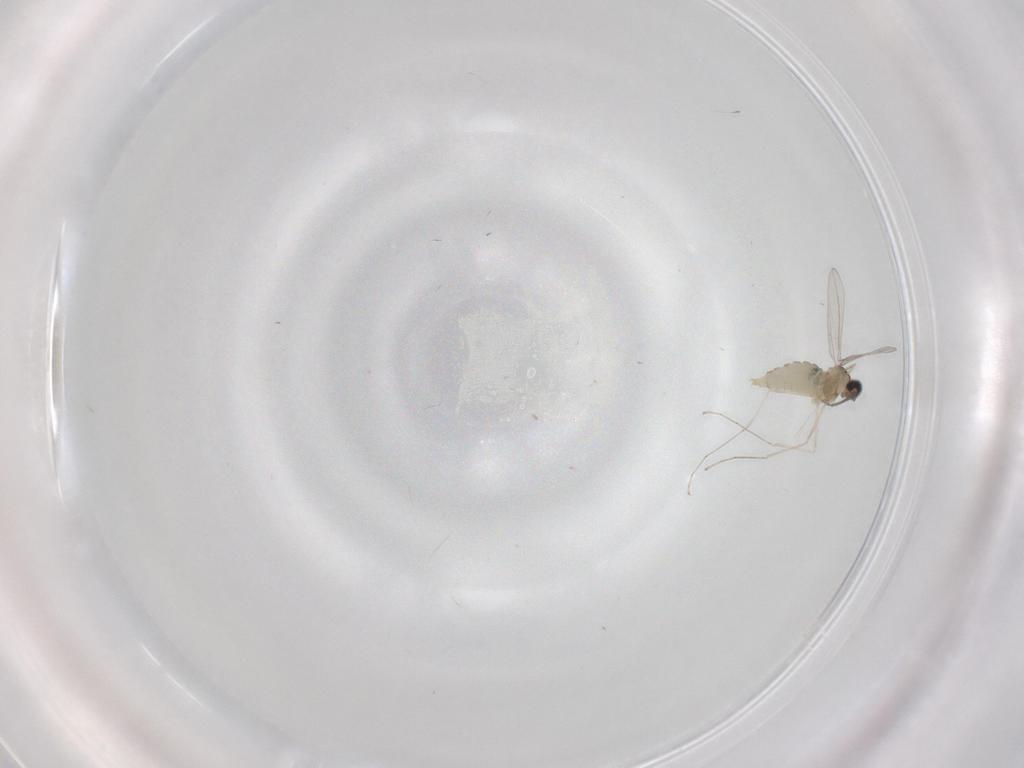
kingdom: Animalia
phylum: Arthropoda
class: Insecta
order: Diptera
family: Cecidomyiidae
